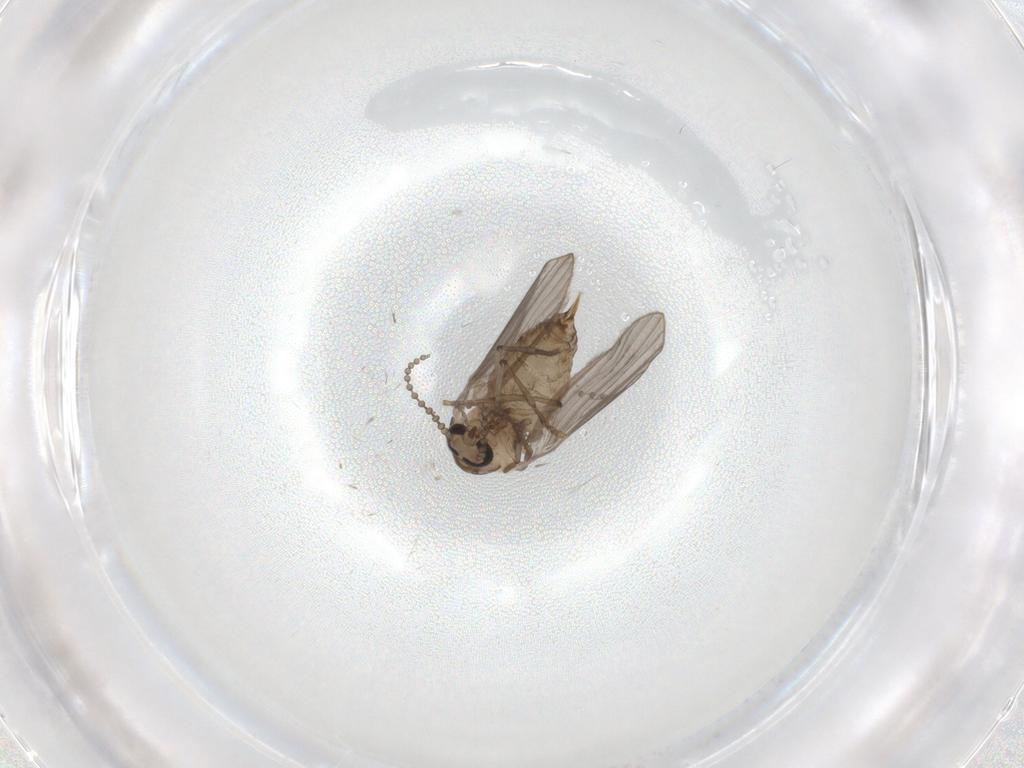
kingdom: Animalia
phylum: Arthropoda
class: Insecta
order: Diptera
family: Psychodidae
